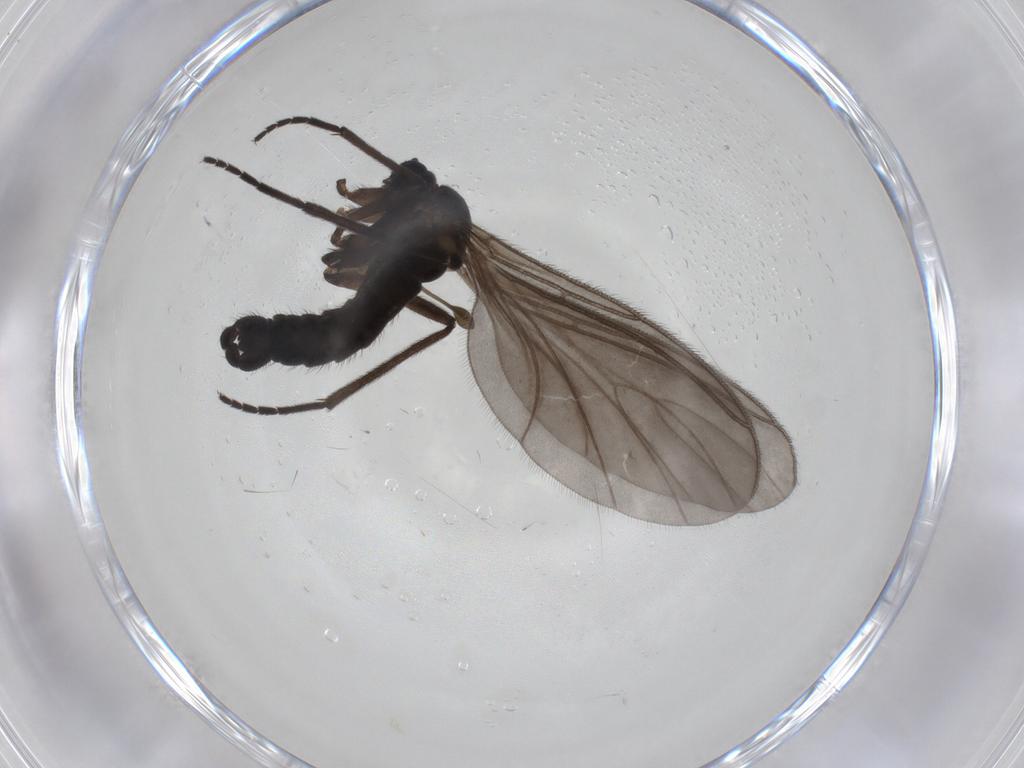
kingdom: Animalia
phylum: Arthropoda
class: Insecta
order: Diptera
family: Sciaridae
